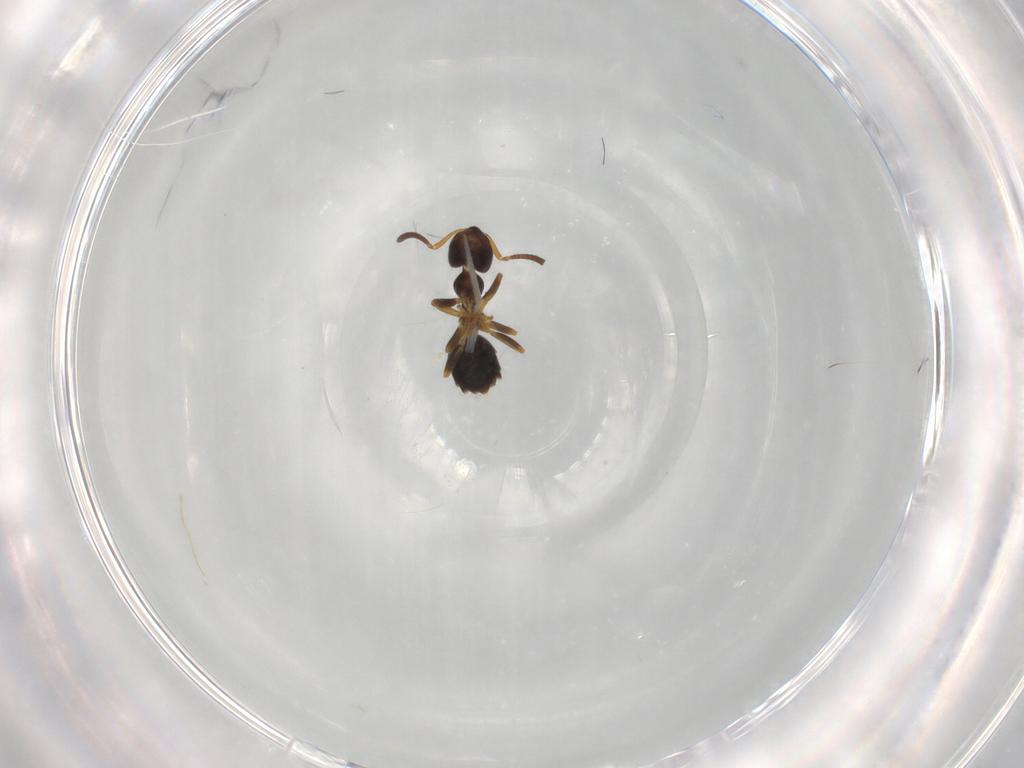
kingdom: Animalia
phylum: Arthropoda
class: Insecta
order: Hymenoptera
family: Formicidae
